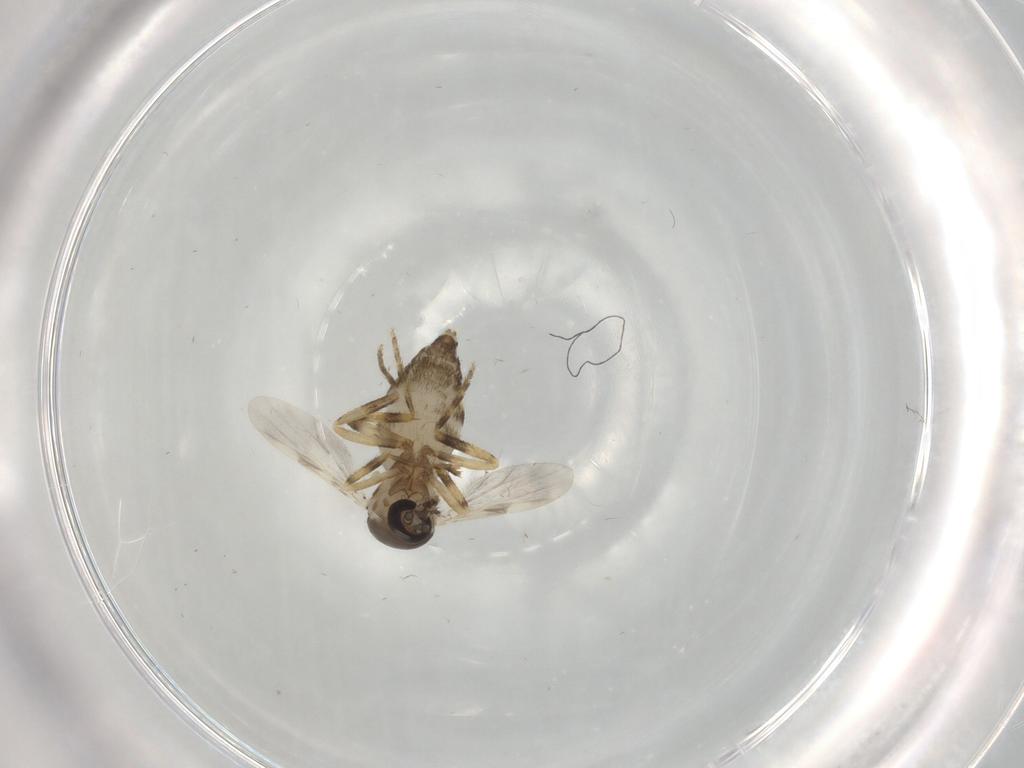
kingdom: Animalia
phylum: Arthropoda
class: Insecta
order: Diptera
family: Ceratopogonidae
